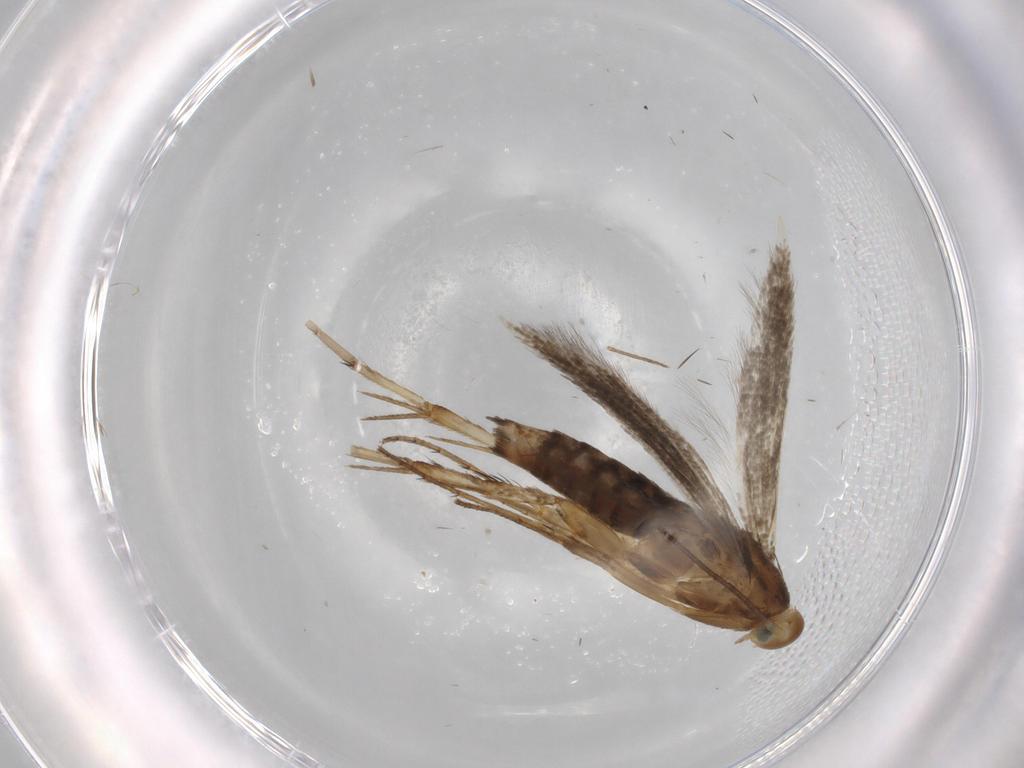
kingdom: Animalia
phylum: Arthropoda
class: Insecta
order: Lepidoptera
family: Heliodinidae
